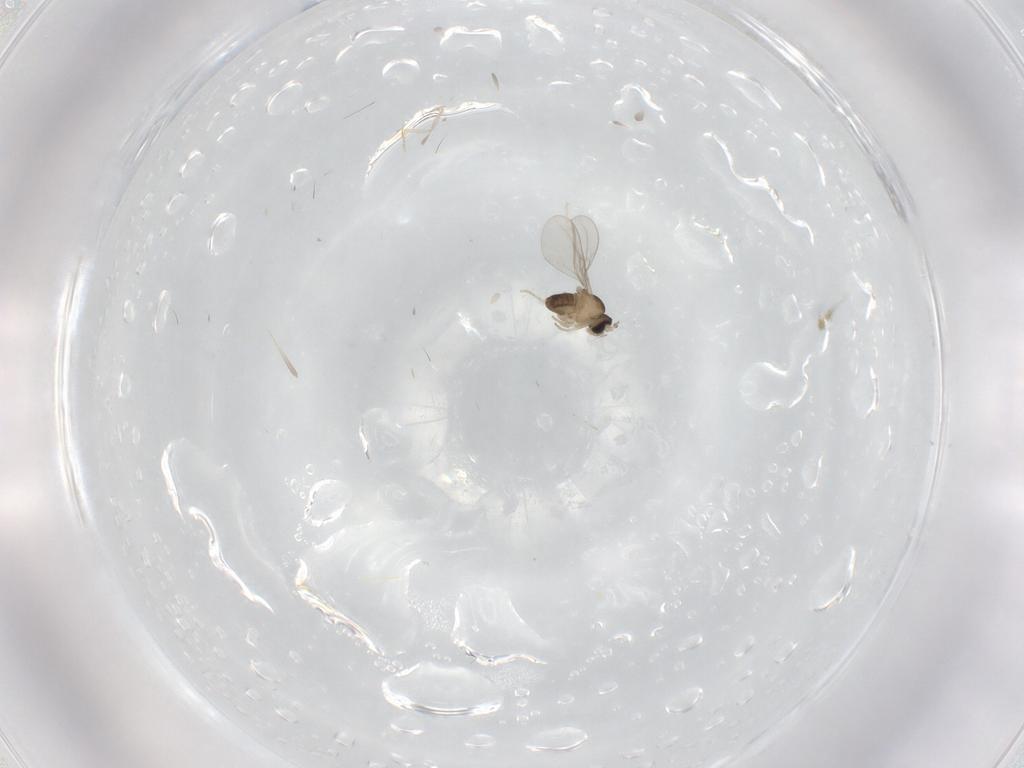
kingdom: Animalia
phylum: Arthropoda
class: Insecta
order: Diptera
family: Cecidomyiidae
